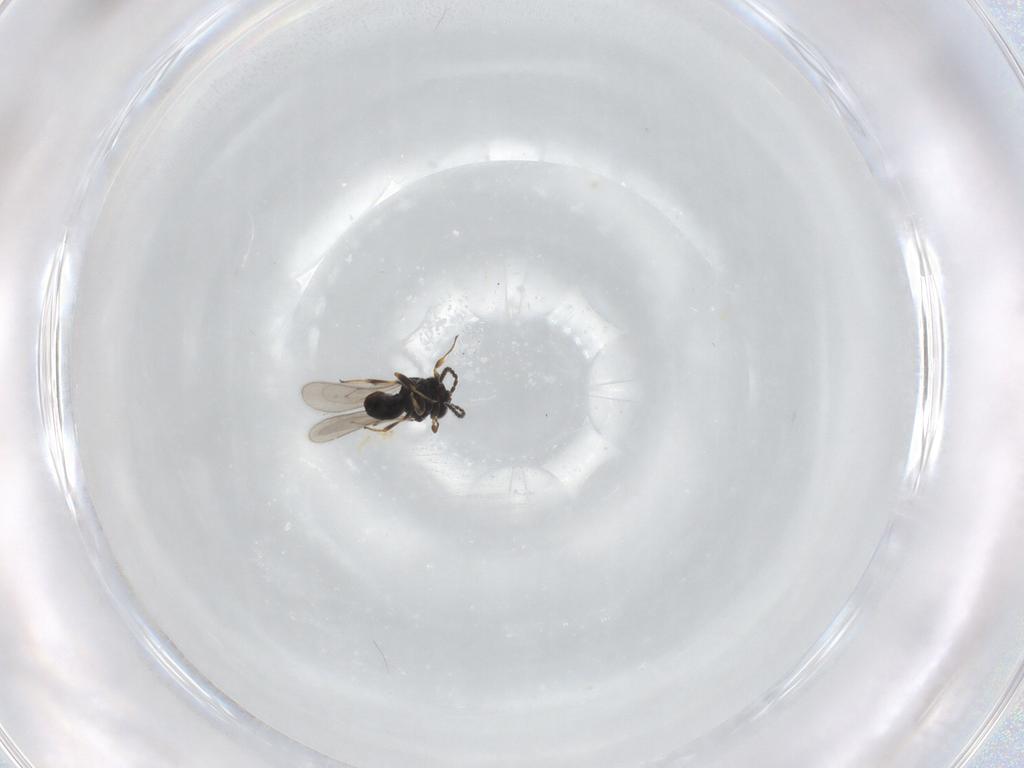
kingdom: Animalia
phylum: Arthropoda
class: Insecta
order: Hymenoptera
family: Scelionidae
